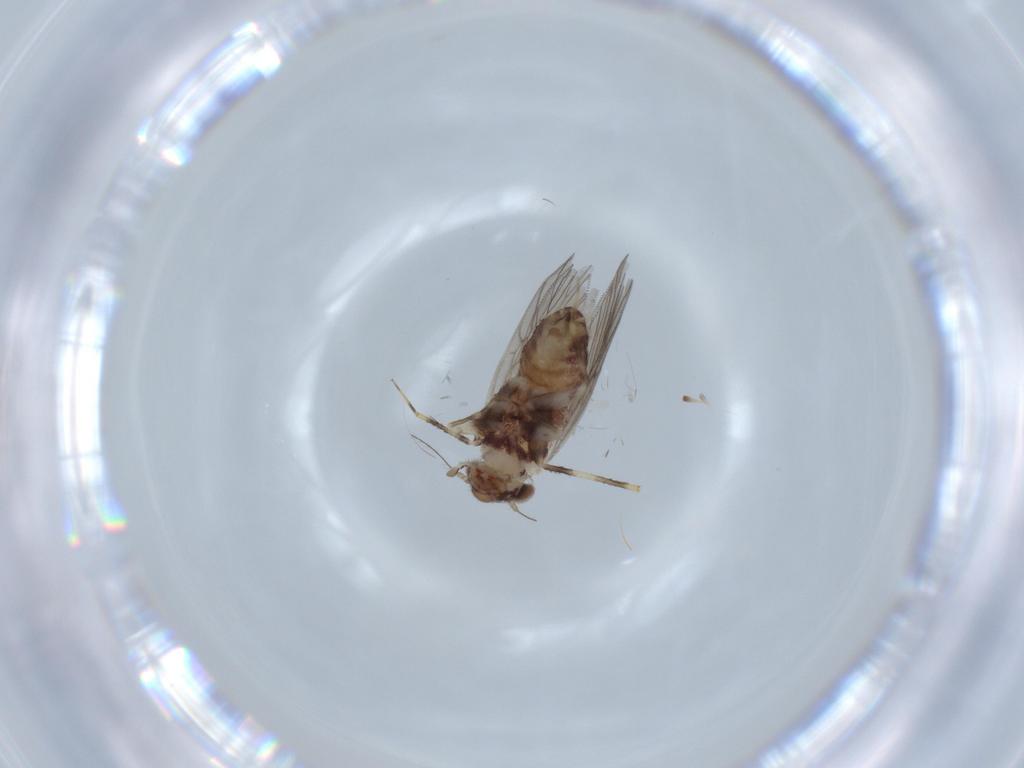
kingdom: Animalia
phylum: Arthropoda
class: Insecta
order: Psocodea
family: Lepidopsocidae
